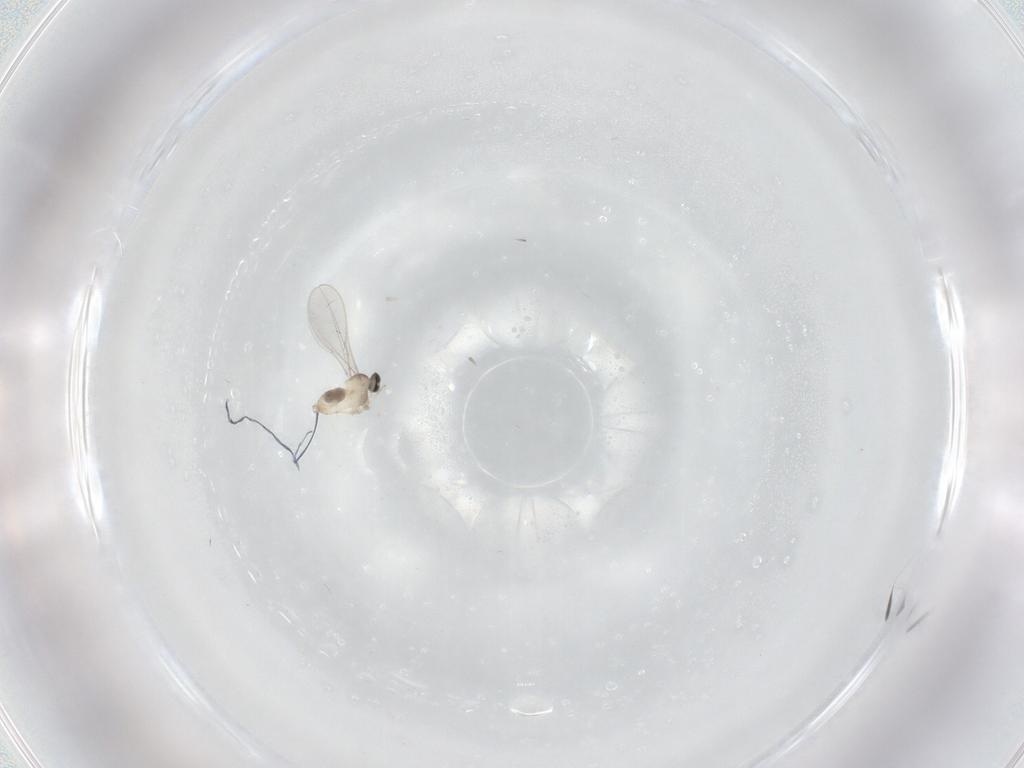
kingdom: Animalia
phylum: Arthropoda
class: Insecta
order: Diptera
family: Cecidomyiidae
